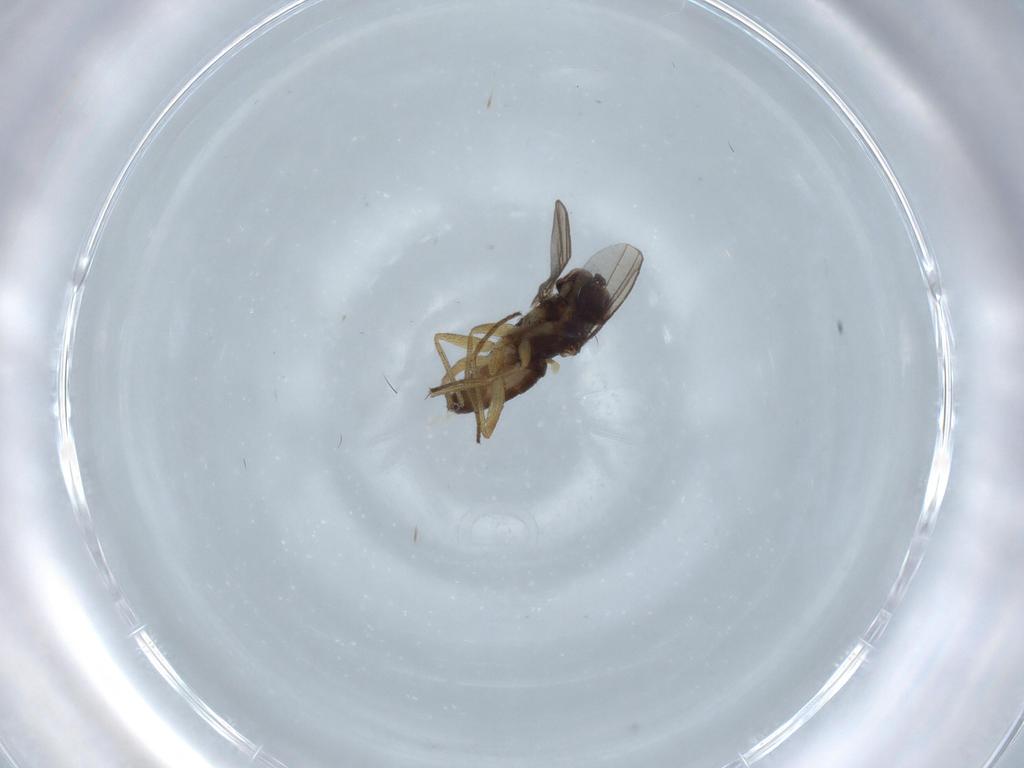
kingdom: Animalia
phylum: Arthropoda
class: Insecta
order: Diptera
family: Dolichopodidae
